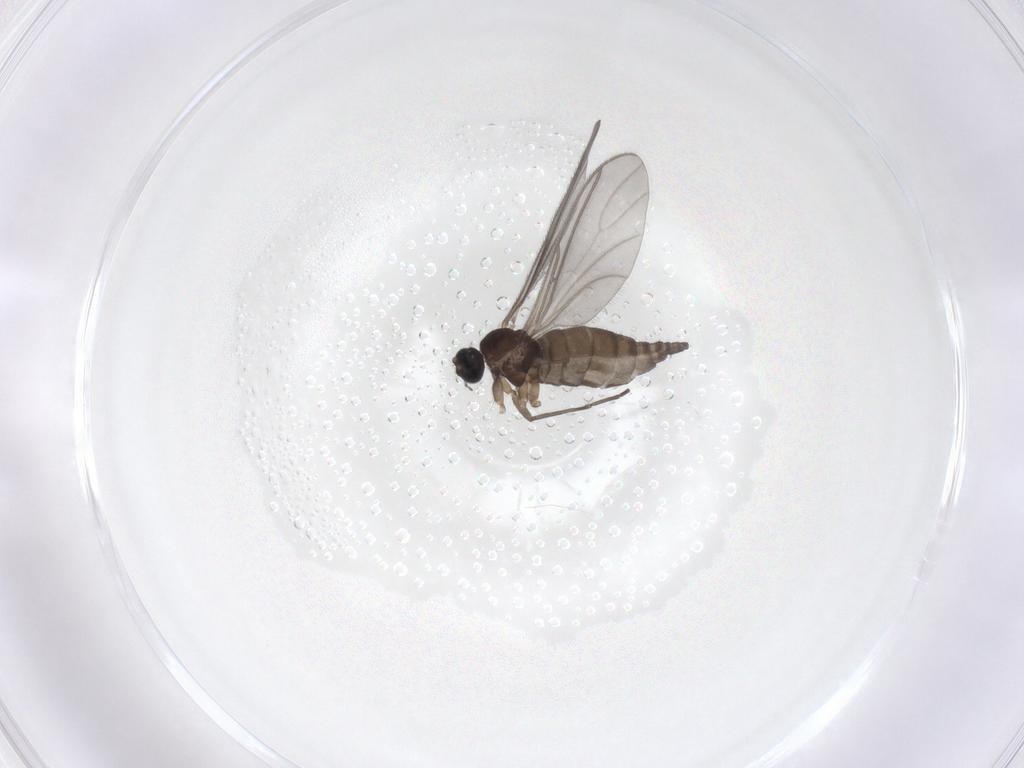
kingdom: Animalia
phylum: Arthropoda
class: Insecta
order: Diptera
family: Sciaridae
